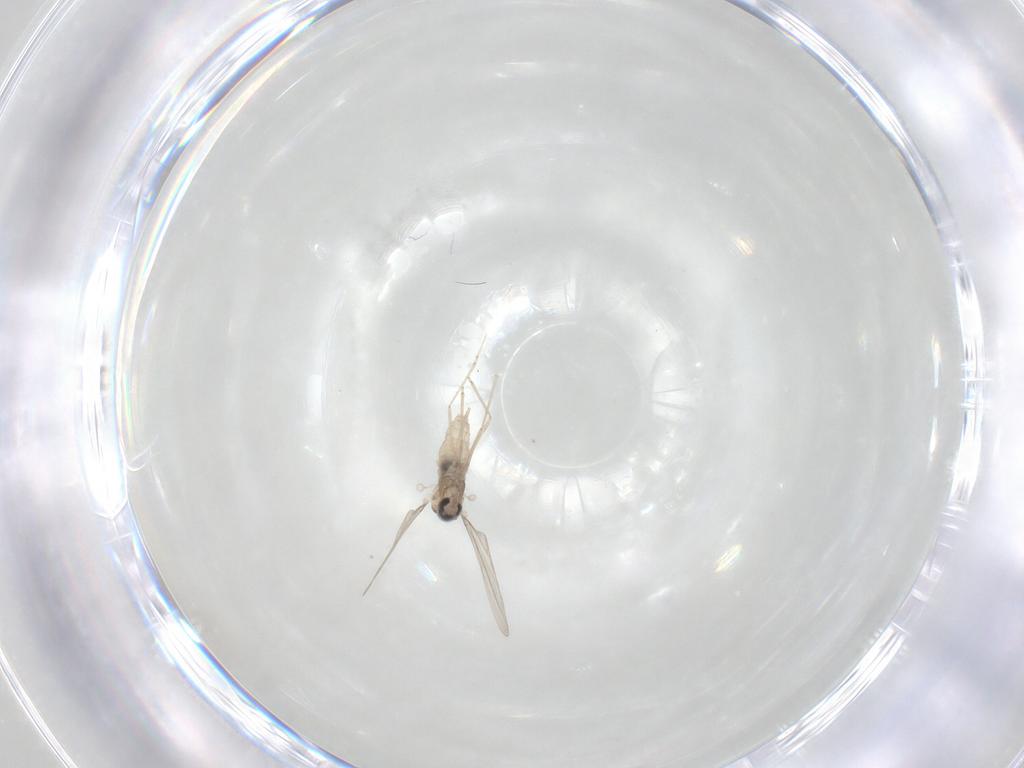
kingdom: Animalia
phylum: Arthropoda
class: Insecta
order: Diptera
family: Cecidomyiidae
